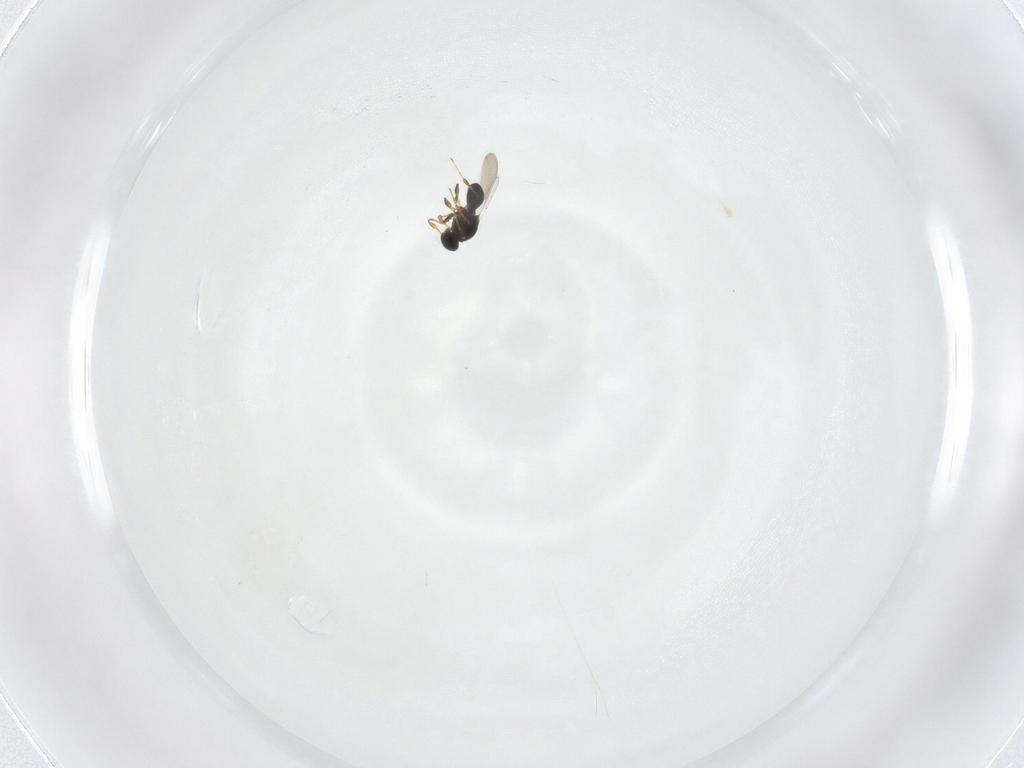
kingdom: Animalia
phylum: Arthropoda
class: Insecta
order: Hymenoptera
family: Platygastridae
